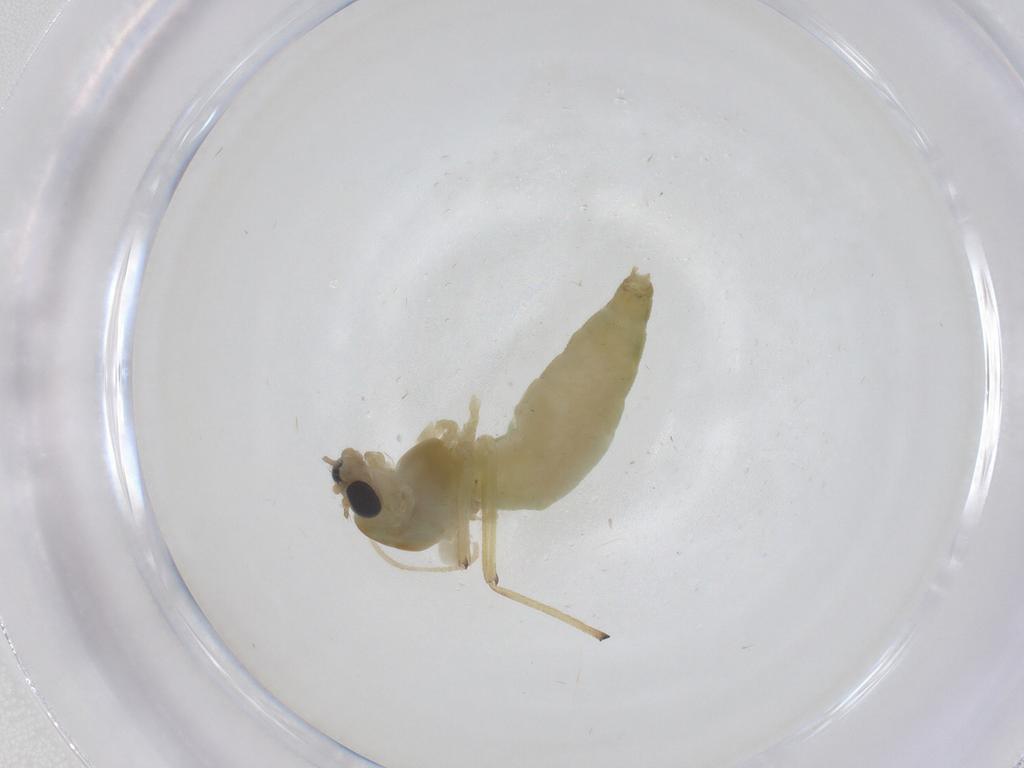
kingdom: Animalia
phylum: Arthropoda
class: Insecta
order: Diptera
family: Chironomidae
